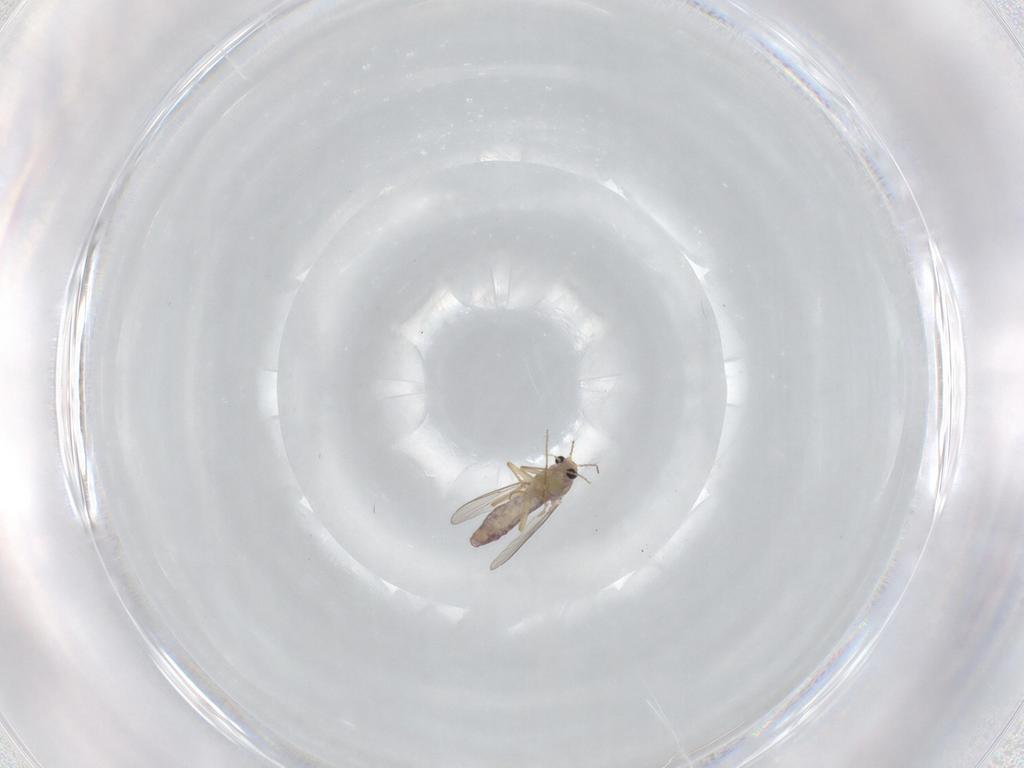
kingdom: Animalia
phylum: Arthropoda
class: Insecta
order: Diptera
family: Chironomidae
